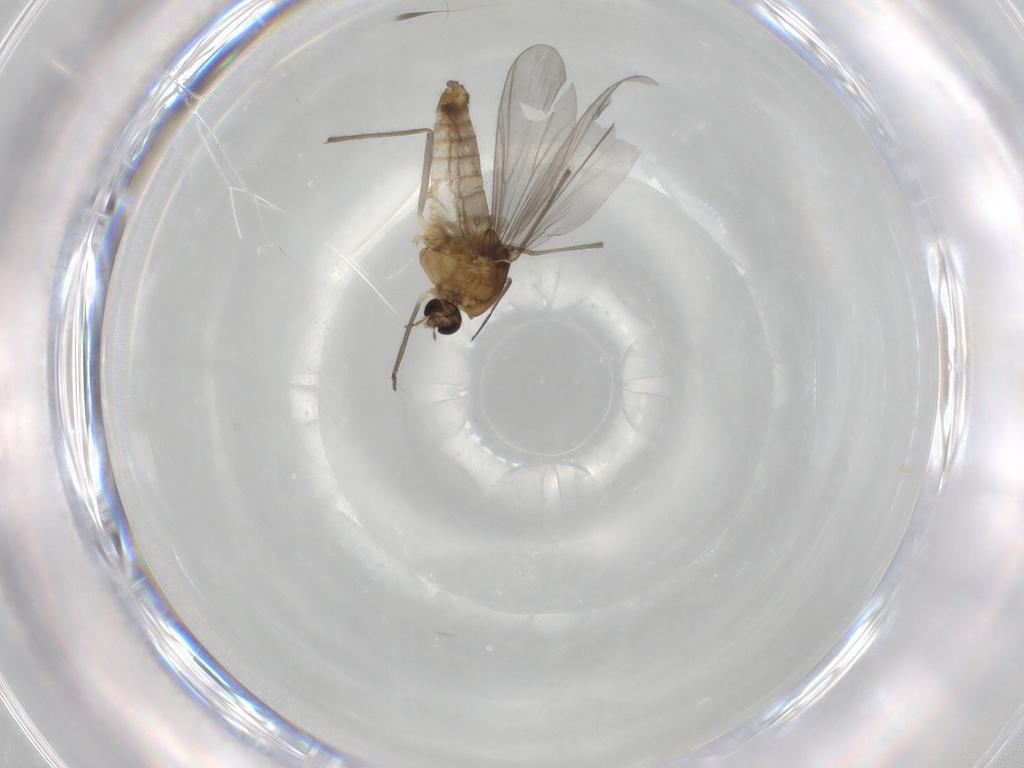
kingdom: Animalia
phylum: Arthropoda
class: Insecta
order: Diptera
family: Chironomidae
